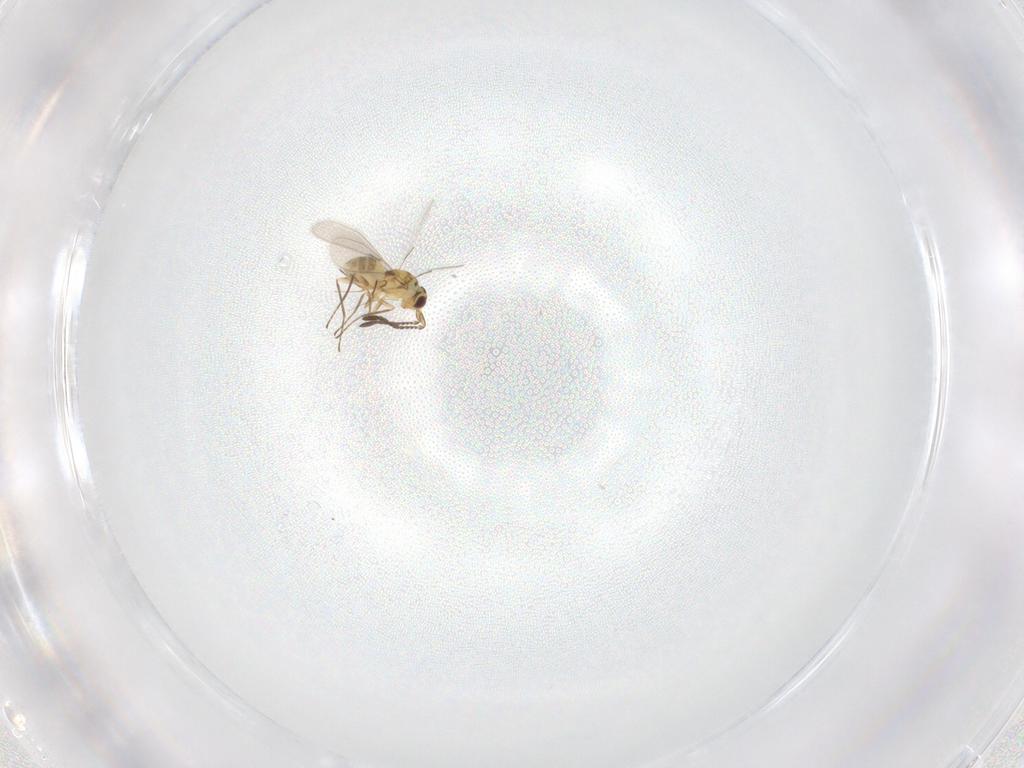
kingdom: Animalia
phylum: Arthropoda
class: Insecta
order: Hymenoptera
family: Mymaridae
